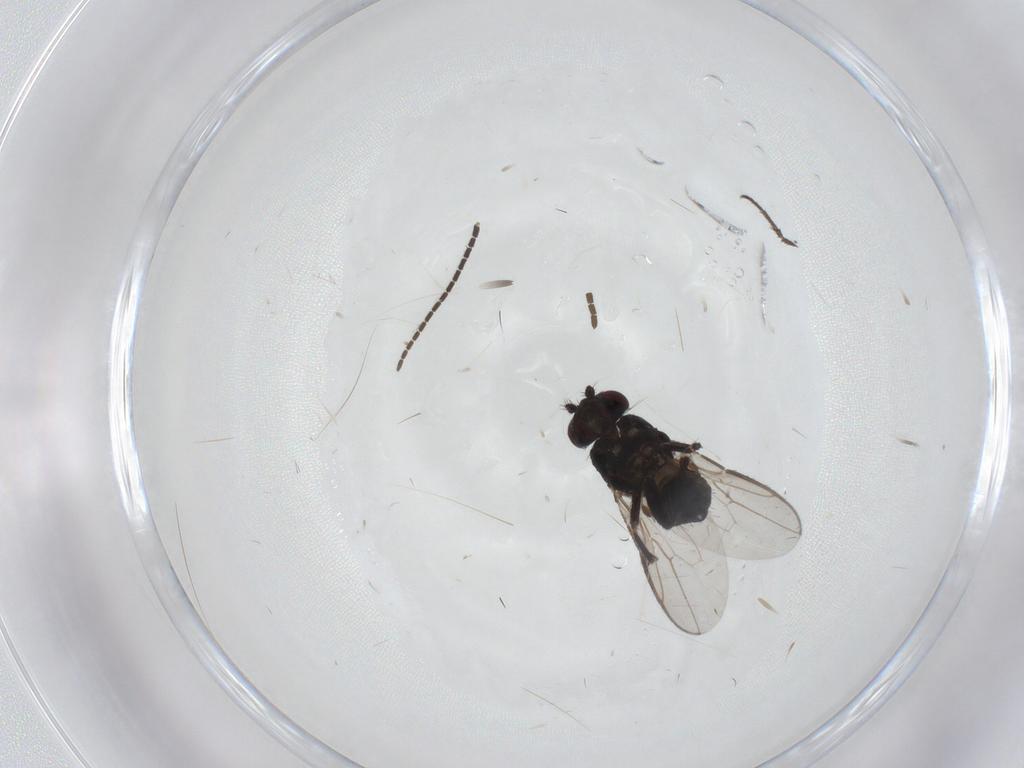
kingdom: Animalia
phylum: Arthropoda
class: Insecta
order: Diptera
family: Sphaeroceridae
